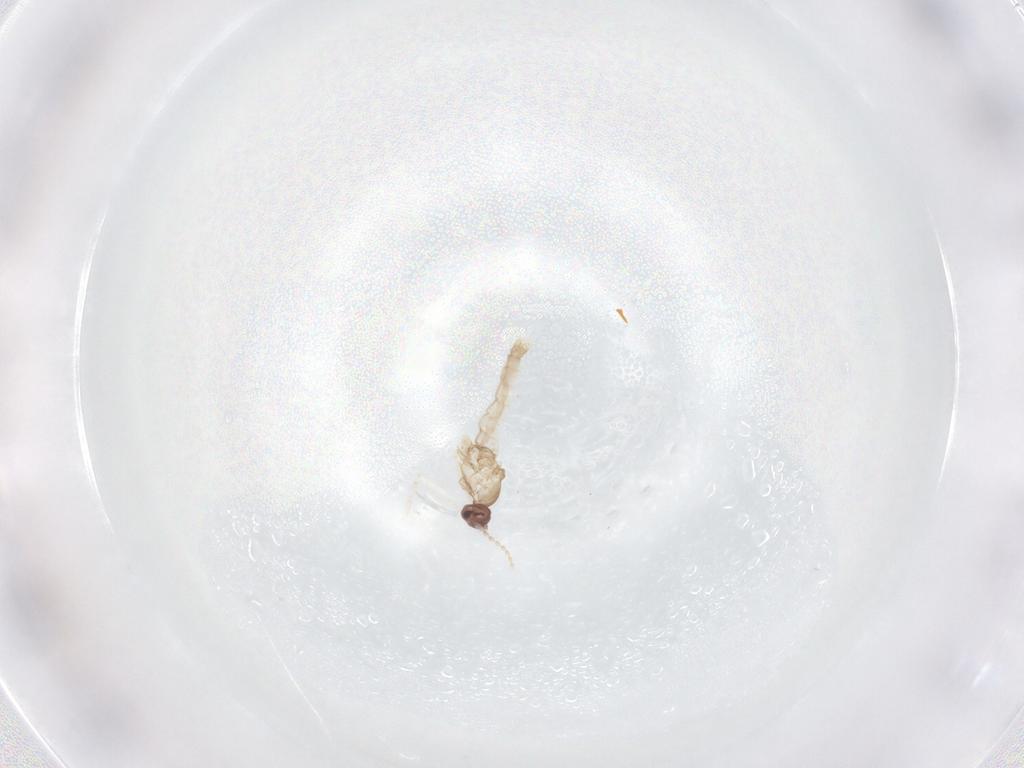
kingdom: Animalia
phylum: Arthropoda
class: Insecta
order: Diptera
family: Cecidomyiidae
